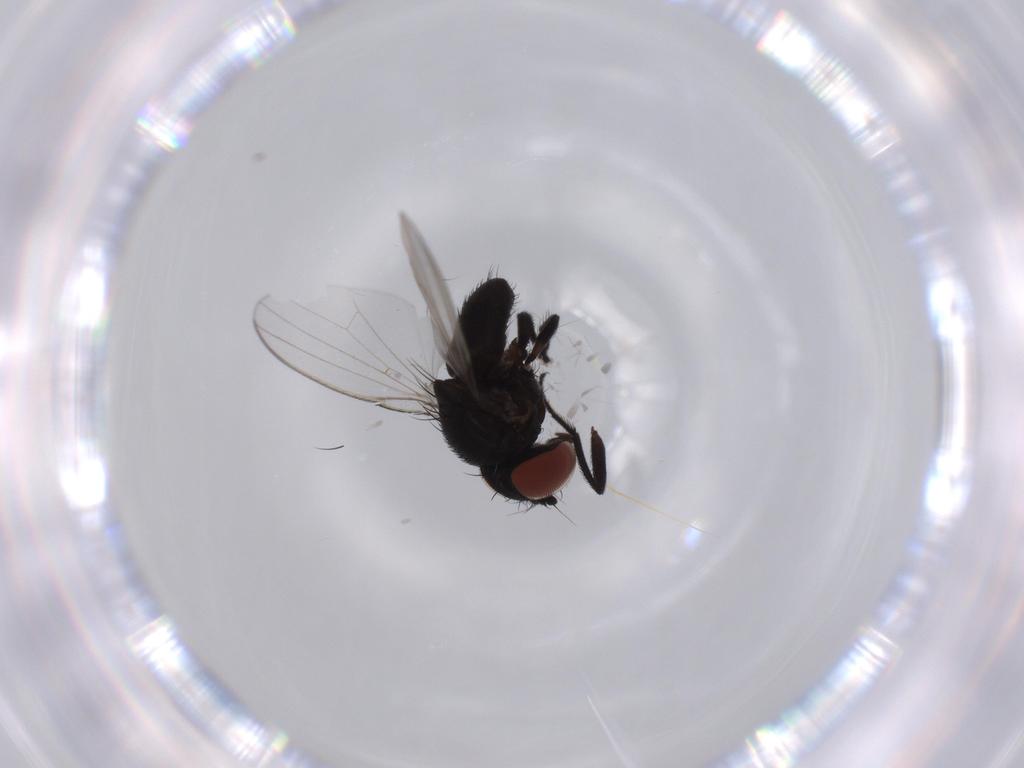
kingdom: Animalia
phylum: Arthropoda
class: Insecta
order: Diptera
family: Milichiidae
